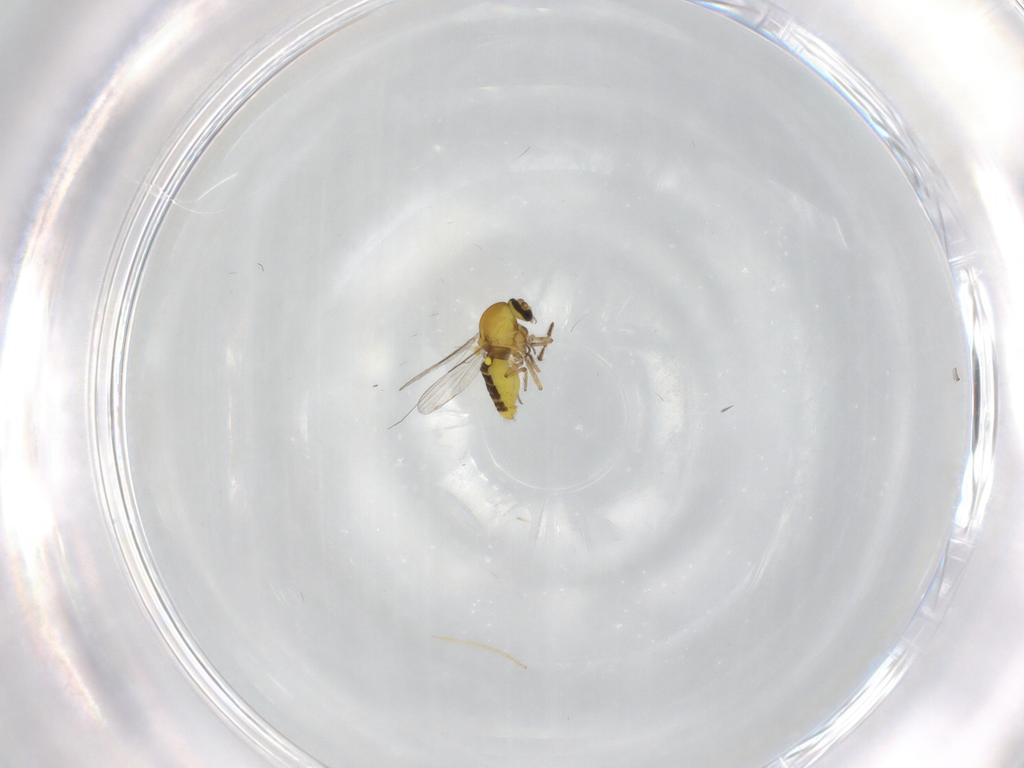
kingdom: Animalia
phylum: Arthropoda
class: Insecta
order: Diptera
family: Chironomidae
